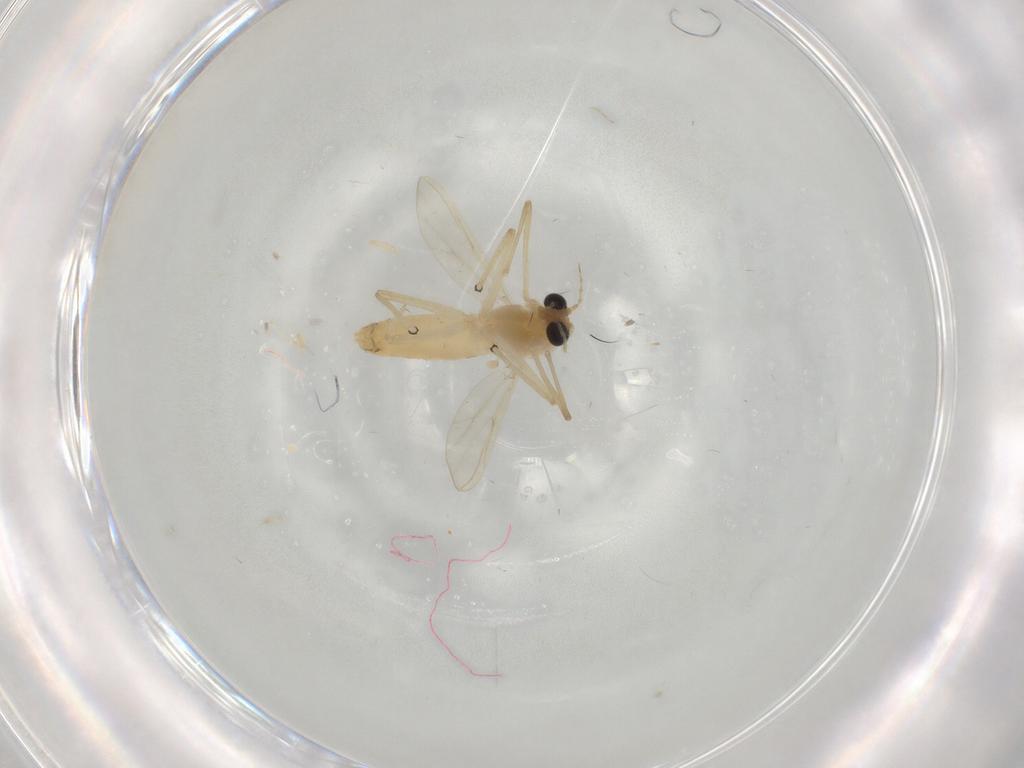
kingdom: Animalia
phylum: Arthropoda
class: Insecta
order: Diptera
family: Chironomidae
